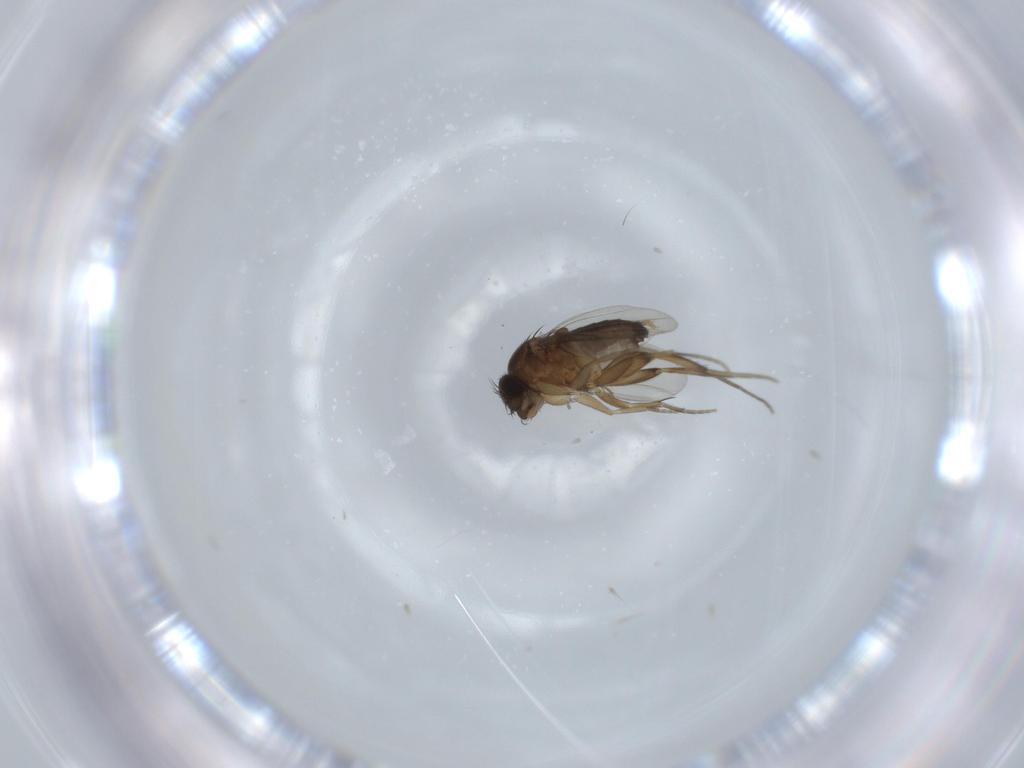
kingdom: Animalia
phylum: Arthropoda
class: Insecta
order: Diptera
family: Phoridae
